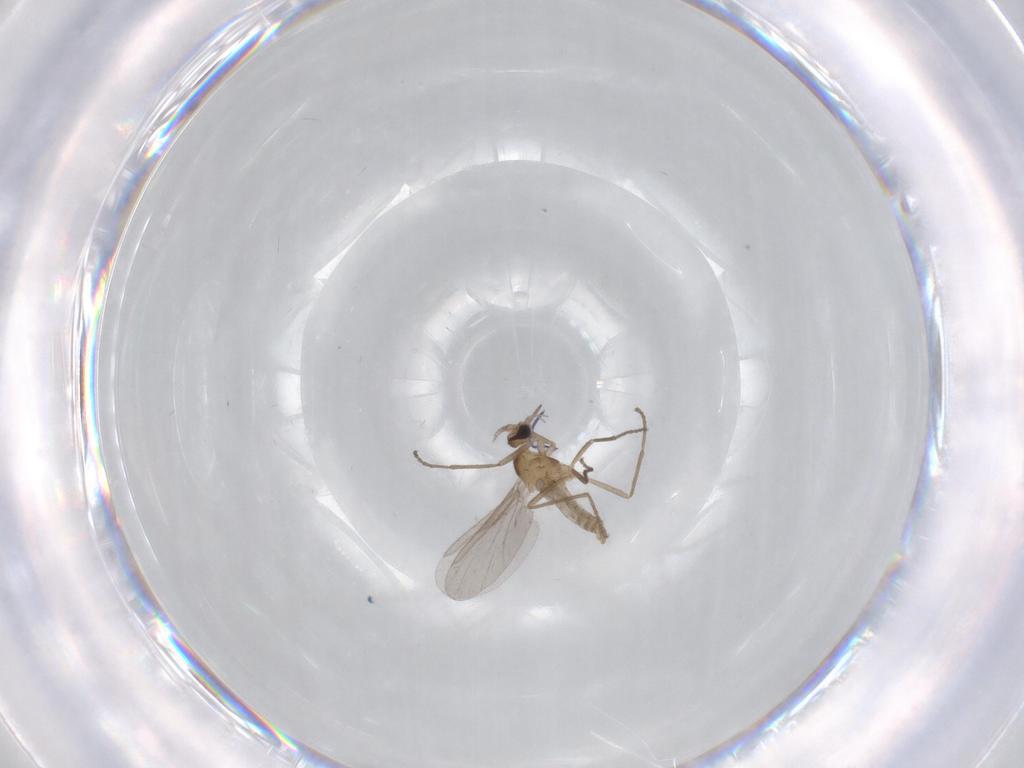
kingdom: Animalia
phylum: Arthropoda
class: Insecta
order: Diptera
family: Cecidomyiidae
